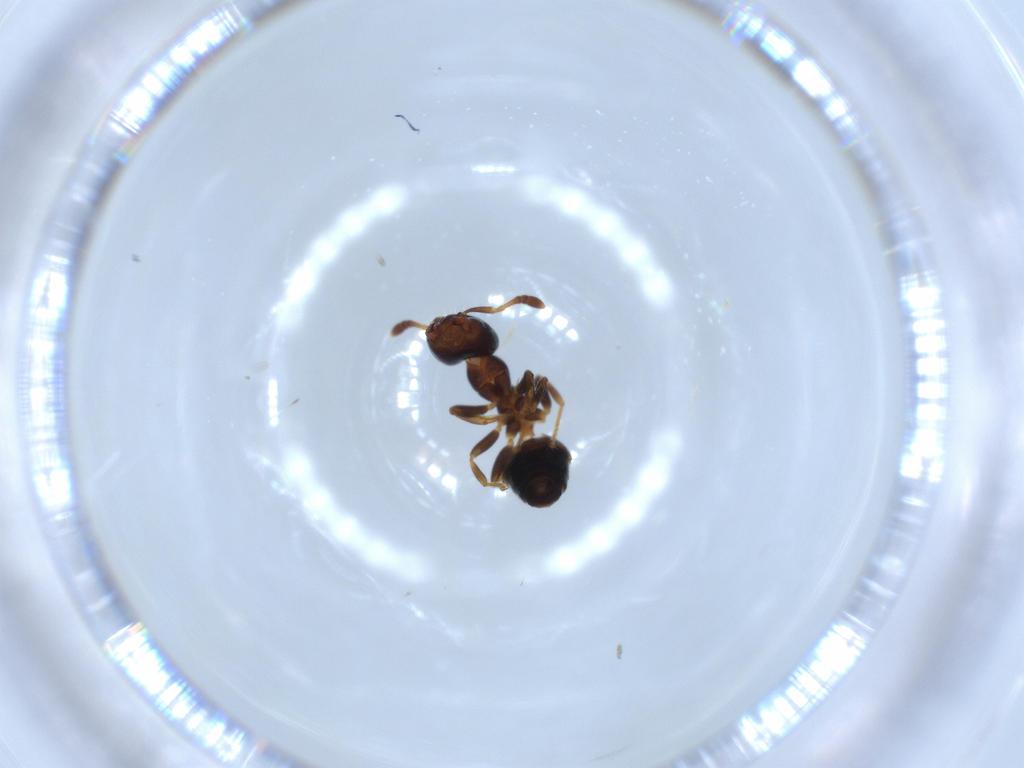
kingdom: Animalia
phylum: Arthropoda
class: Insecta
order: Hymenoptera
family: Formicidae
